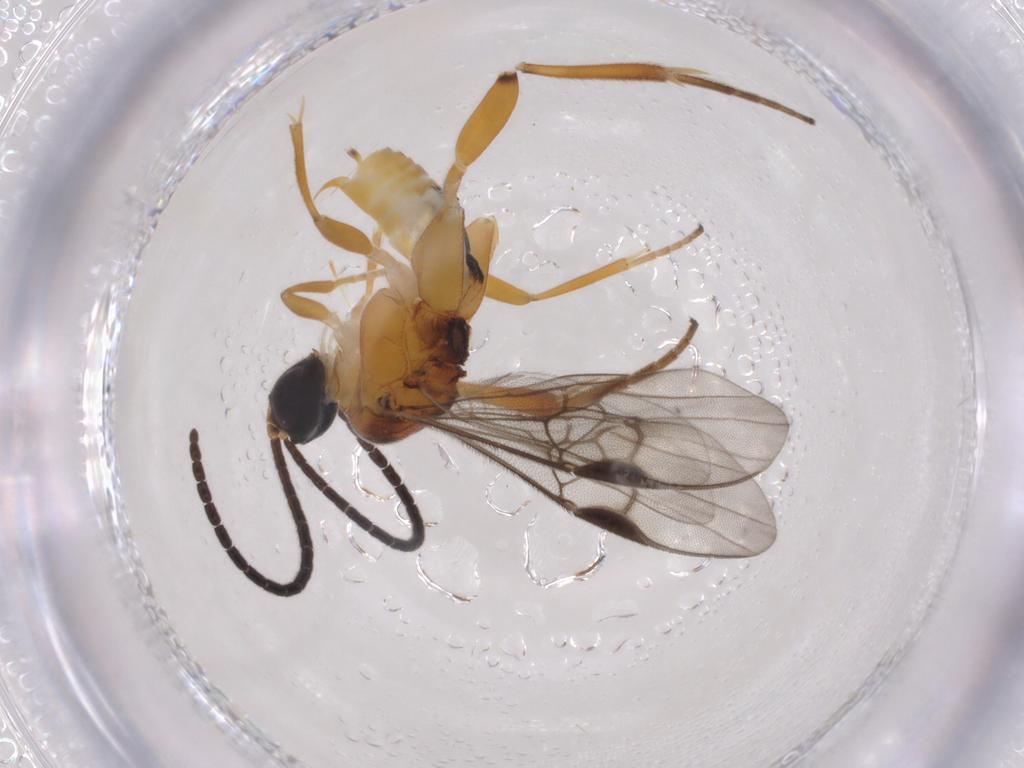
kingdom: Animalia
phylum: Arthropoda
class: Insecta
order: Hymenoptera
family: Braconidae
